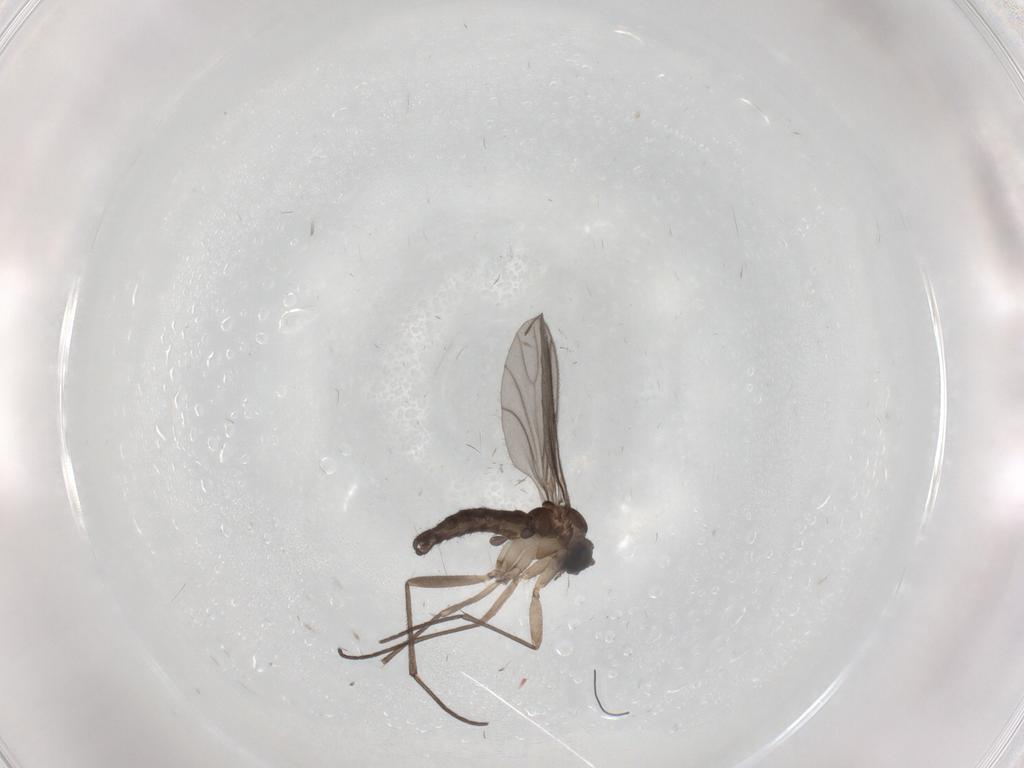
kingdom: Animalia
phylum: Arthropoda
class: Insecta
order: Diptera
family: Sciaridae
